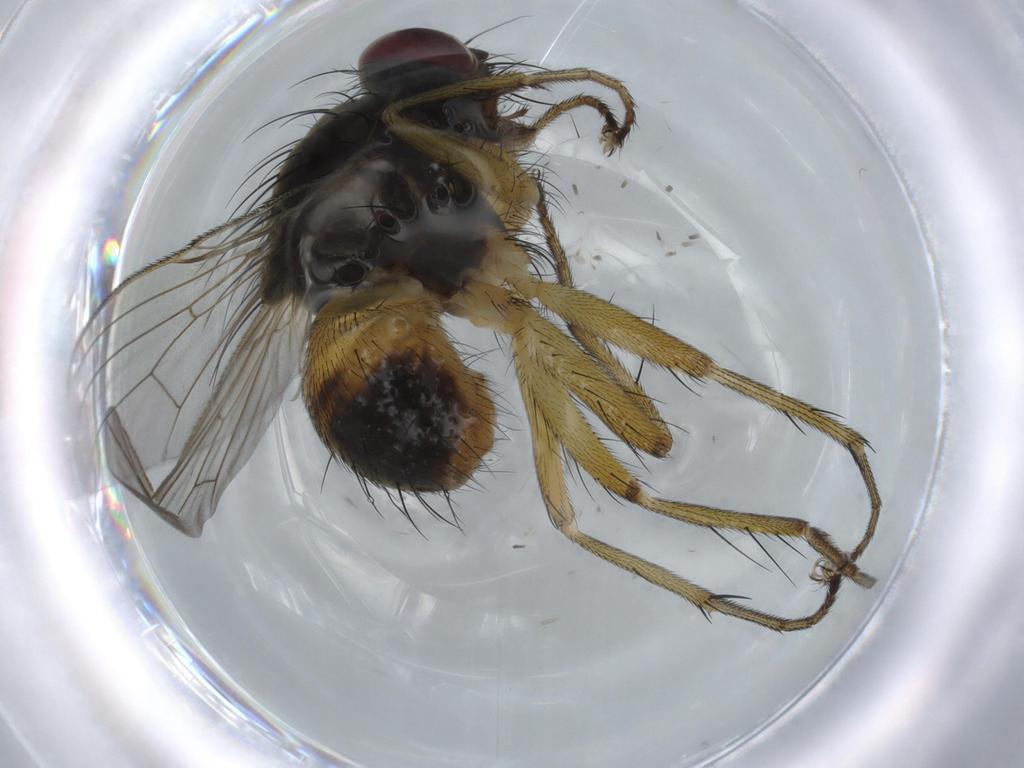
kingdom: Animalia
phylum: Arthropoda
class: Insecta
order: Diptera
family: Muscidae
